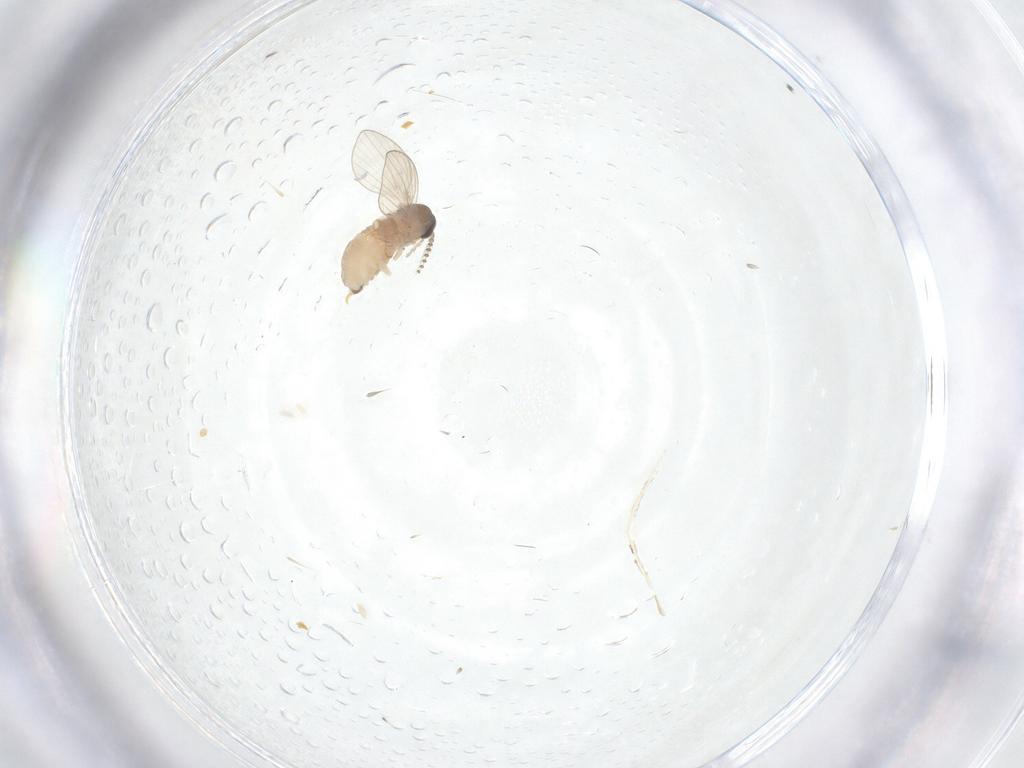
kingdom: Animalia
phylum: Arthropoda
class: Insecta
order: Diptera
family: Psychodidae
